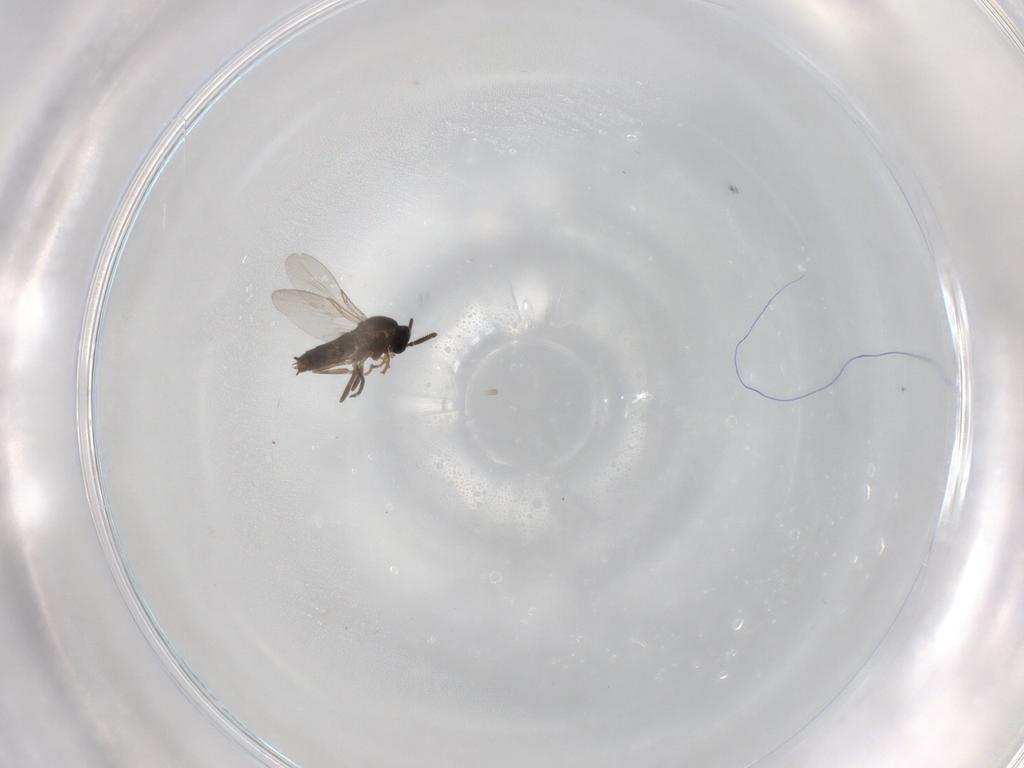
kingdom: Animalia
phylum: Arthropoda
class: Insecta
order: Diptera
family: Scatopsidae
